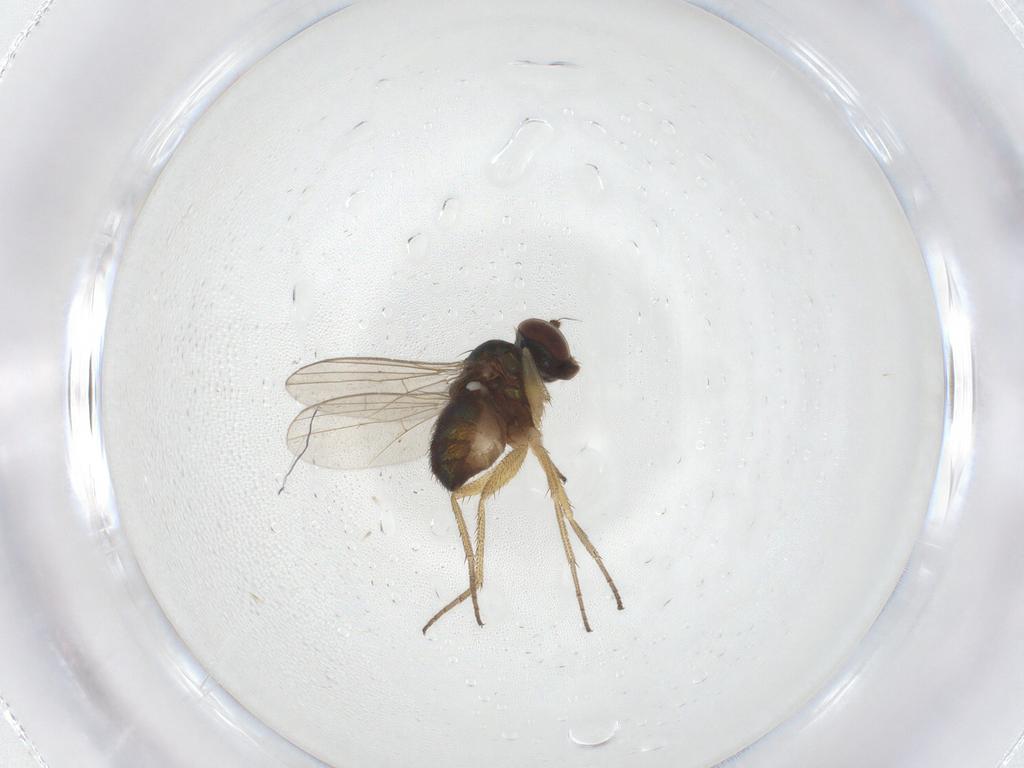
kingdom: Animalia
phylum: Arthropoda
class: Insecta
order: Diptera
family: Dolichopodidae
